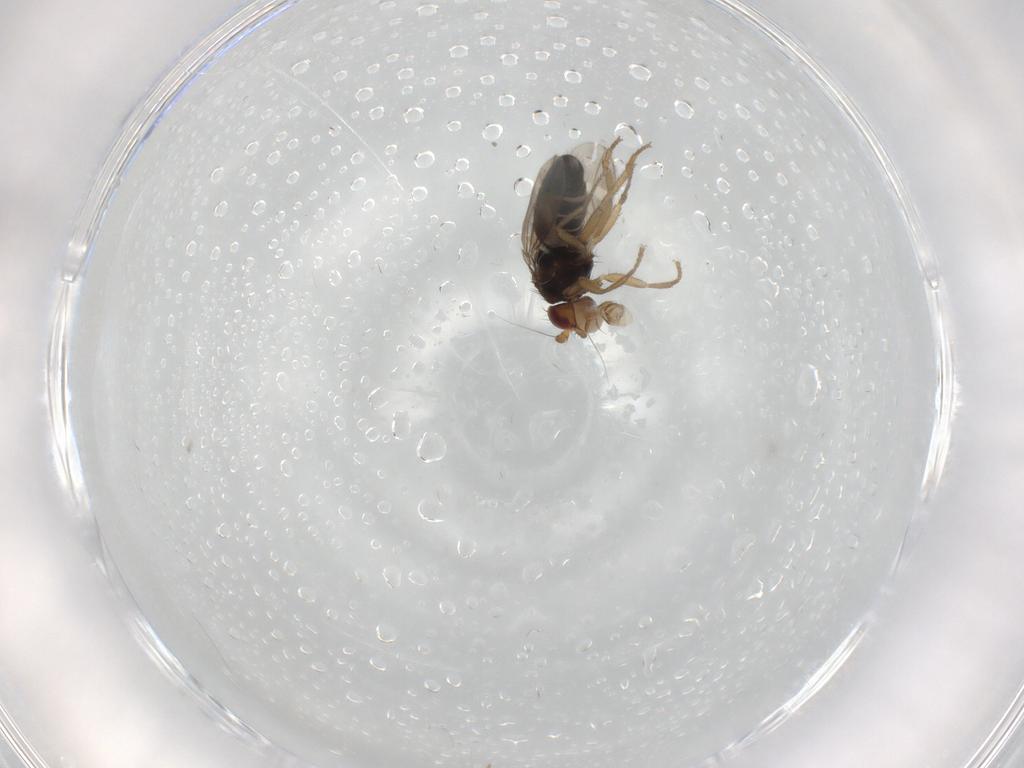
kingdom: Animalia
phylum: Arthropoda
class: Insecta
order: Diptera
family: Sphaeroceridae
